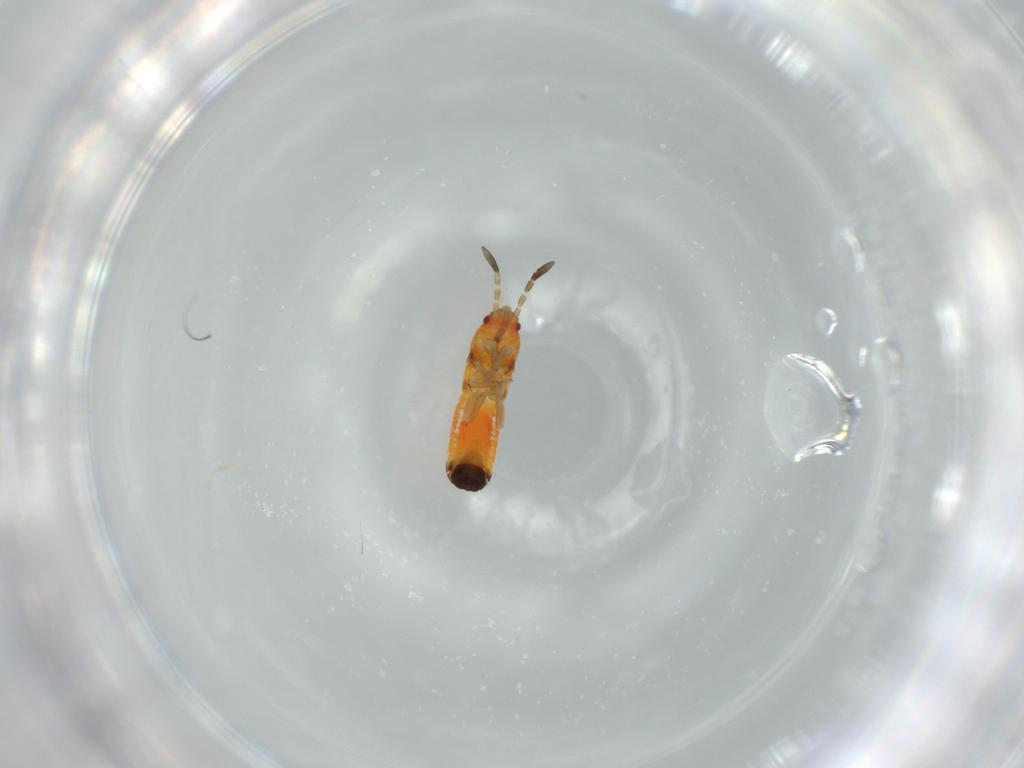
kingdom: Animalia
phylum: Arthropoda
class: Insecta
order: Hemiptera
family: Blissidae
